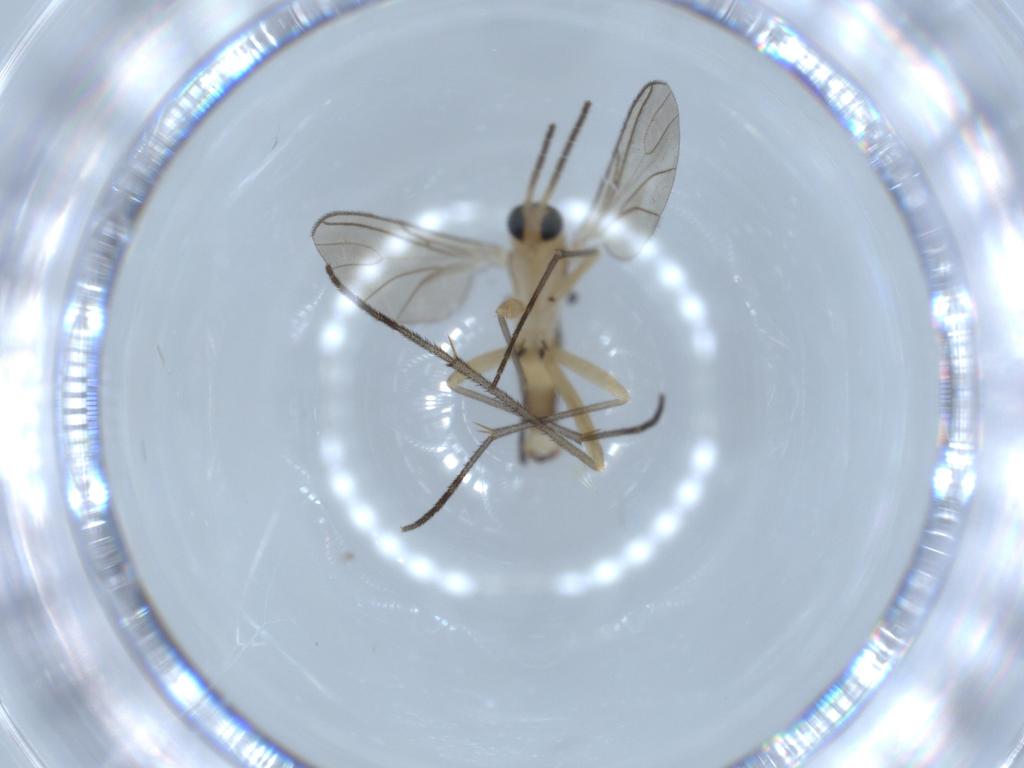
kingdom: Animalia
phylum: Arthropoda
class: Insecta
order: Diptera
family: Sciaridae
